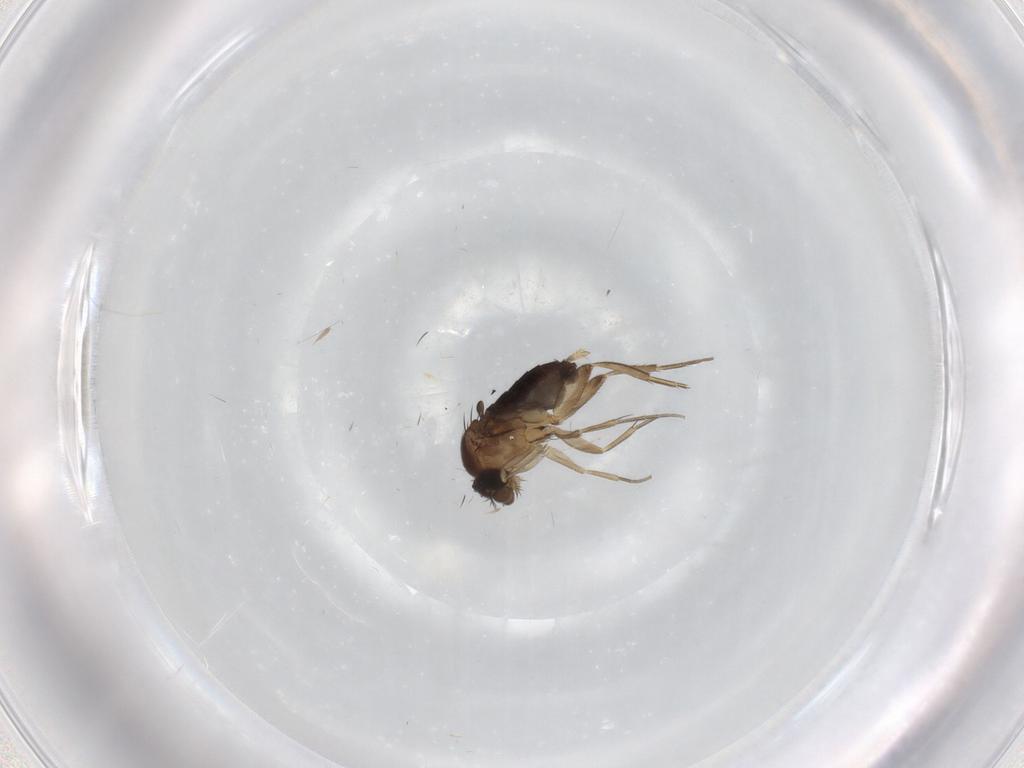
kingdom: Animalia
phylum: Arthropoda
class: Insecta
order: Diptera
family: Phoridae
